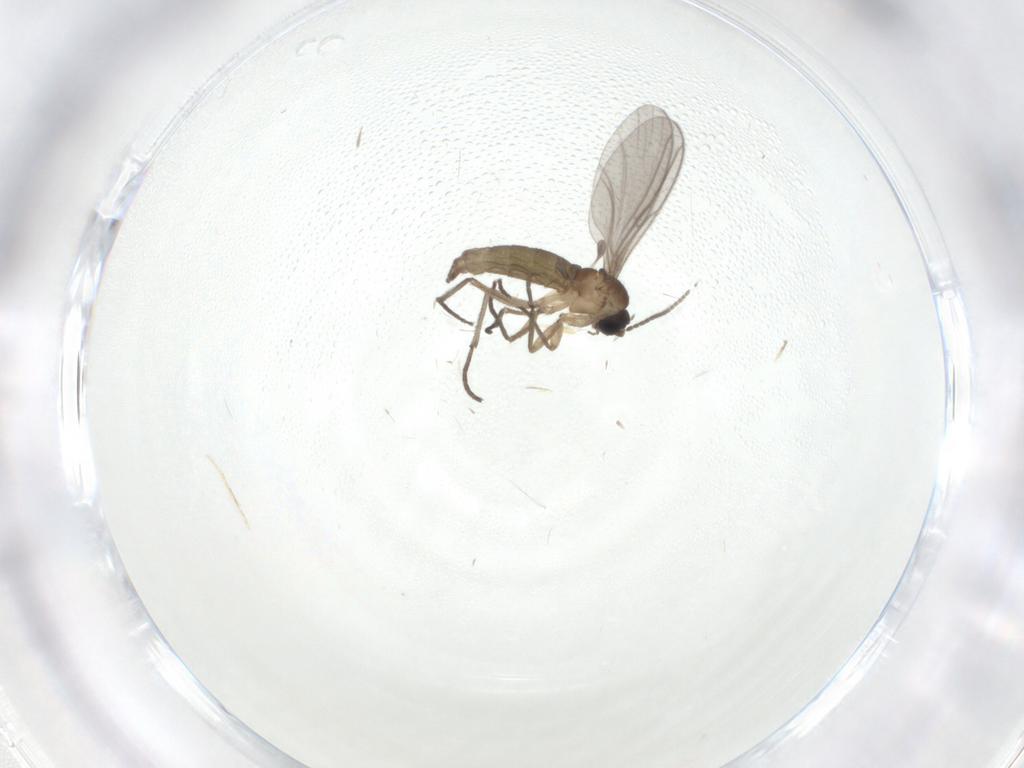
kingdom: Animalia
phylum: Arthropoda
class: Insecta
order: Diptera
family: Sciaridae
